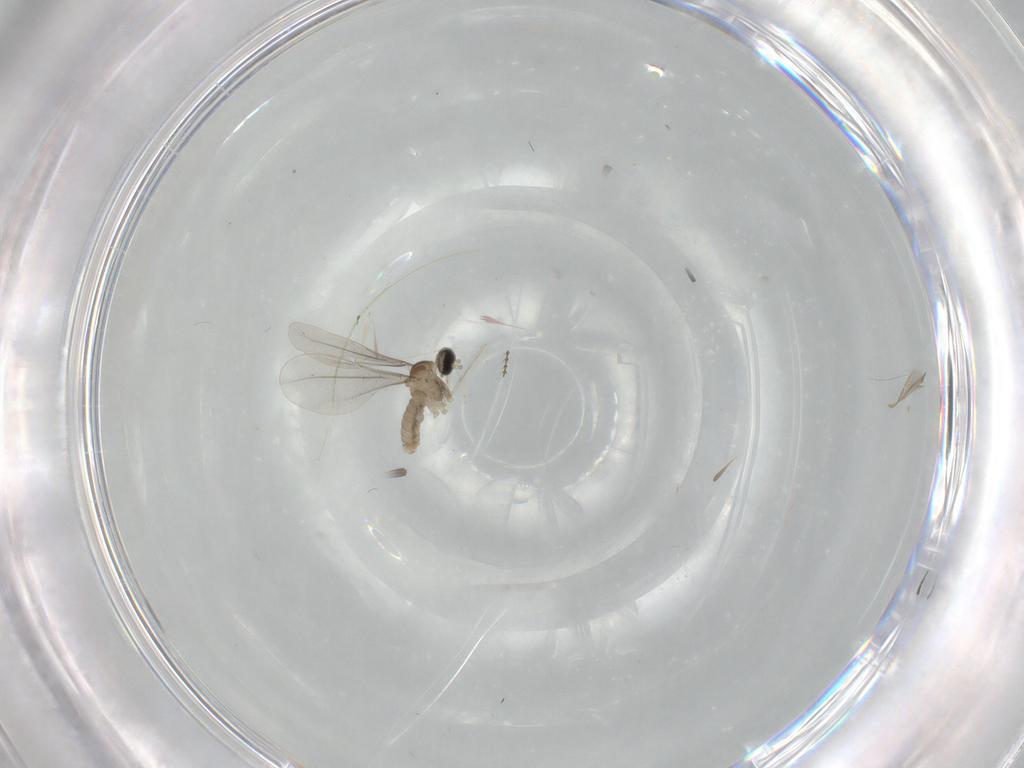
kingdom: Animalia
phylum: Arthropoda
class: Insecta
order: Diptera
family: Cecidomyiidae
